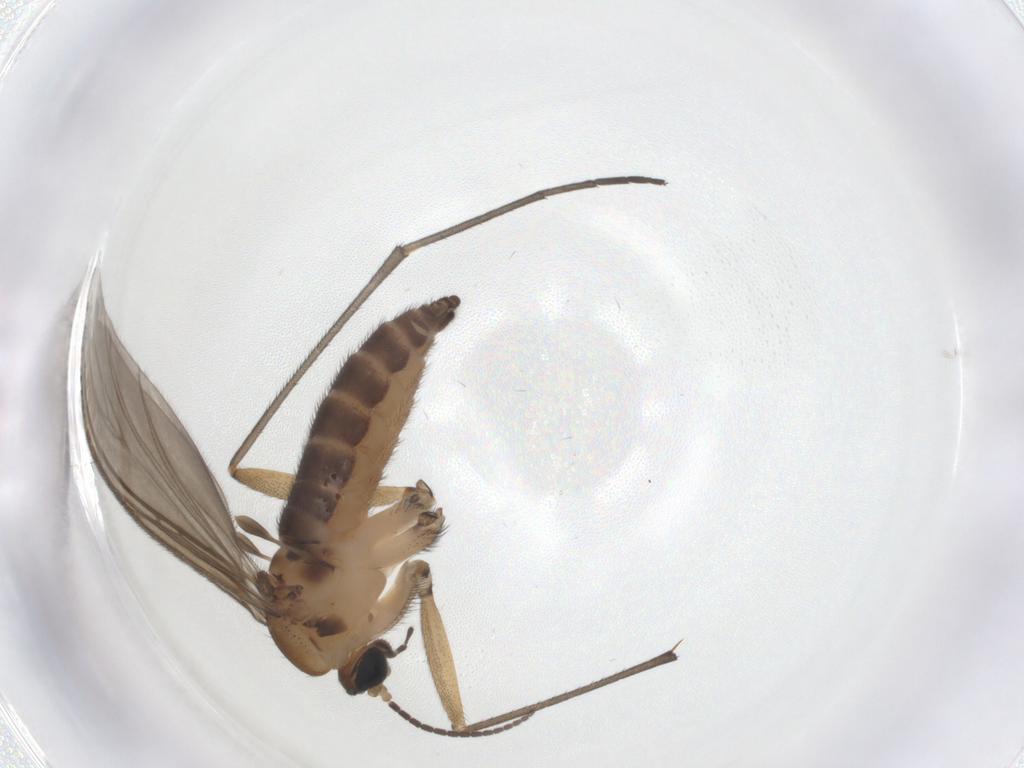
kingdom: Animalia
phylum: Arthropoda
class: Insecta
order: Diptera
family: Sciaridae
